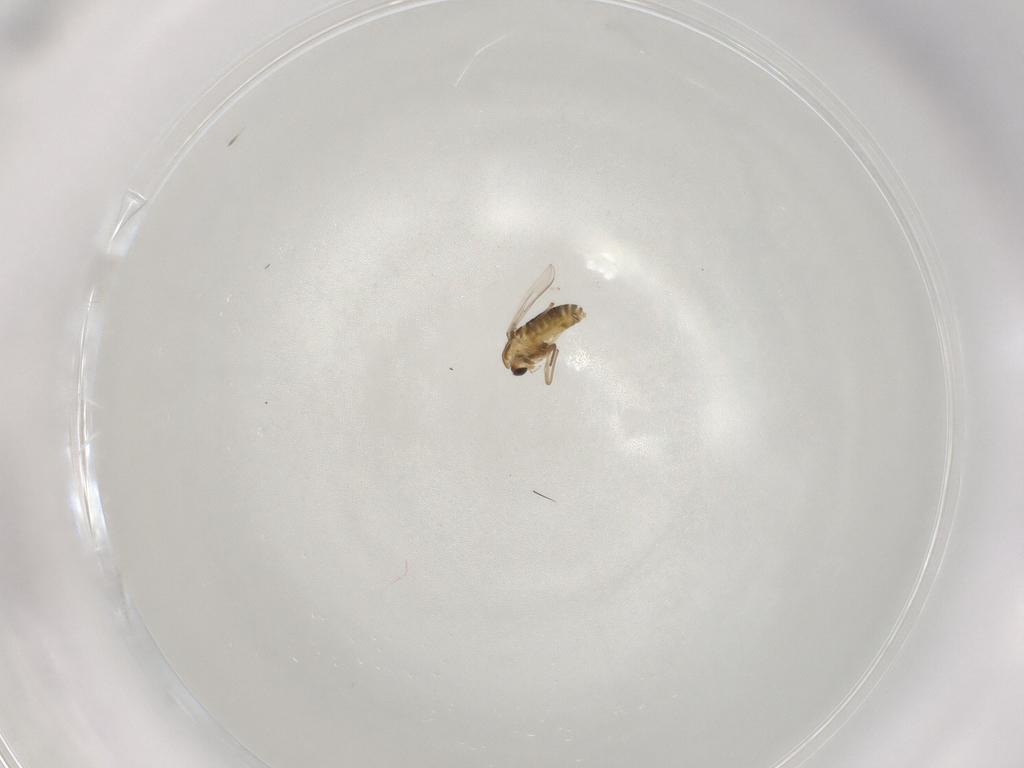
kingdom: Animalia
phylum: Arthropoda
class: Insecta
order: Diptera
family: Chironomidae
